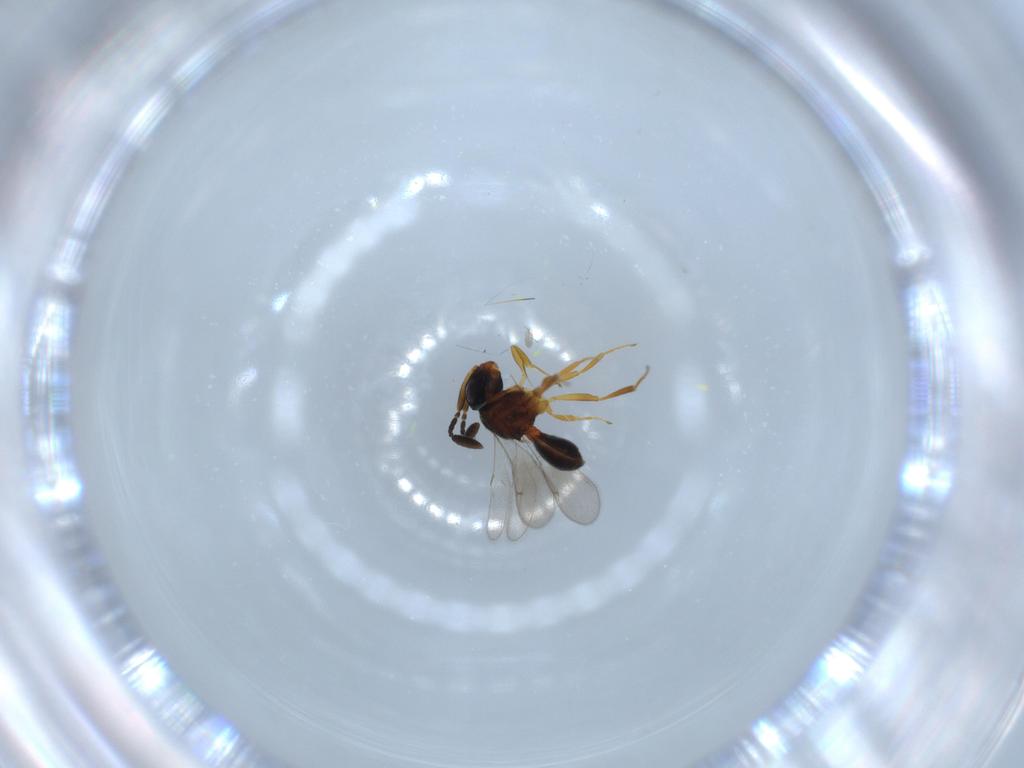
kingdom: Animalia
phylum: Arthropoda
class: Insecta
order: Hymenoptera
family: Scelionidae
